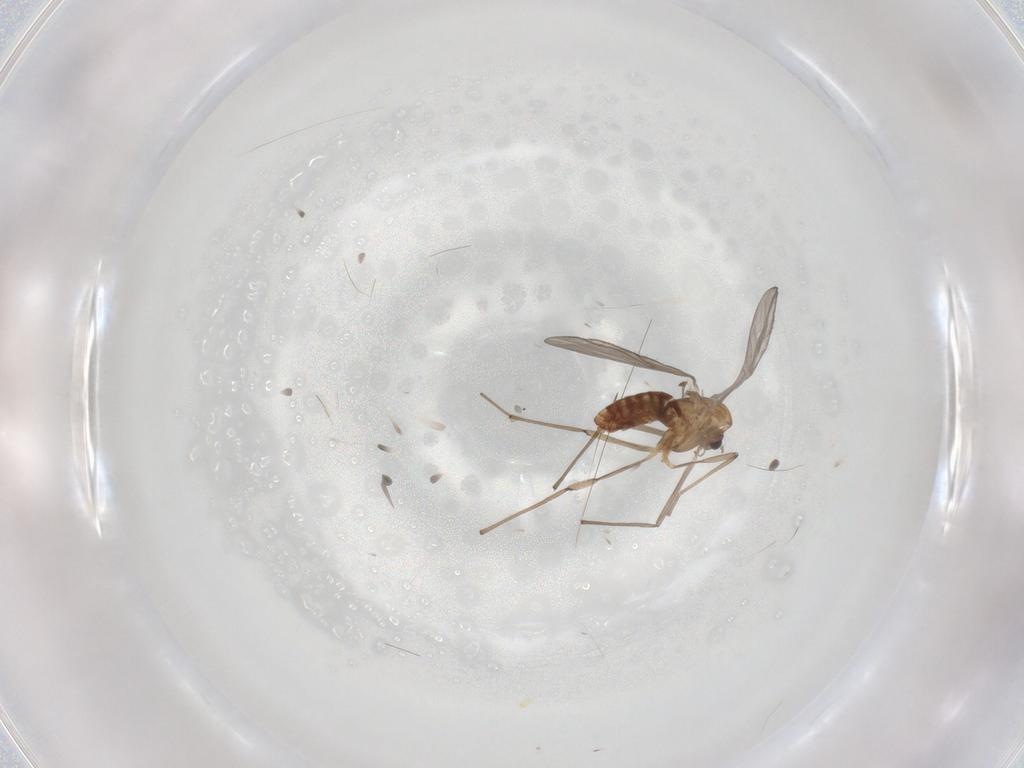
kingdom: Animalia
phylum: Arthropoda
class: Insecta
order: Diptera
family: Chironomidae
